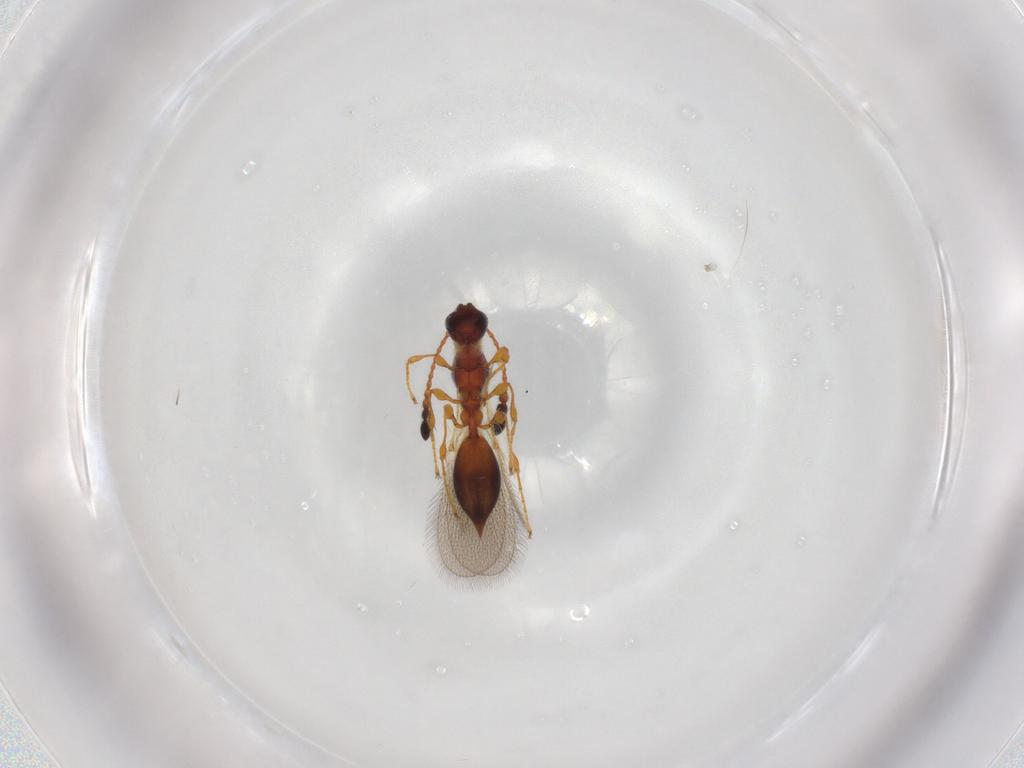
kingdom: Animalia
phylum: Arthropoda
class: Insecta
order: Hymenoptera
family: Diapriidae
